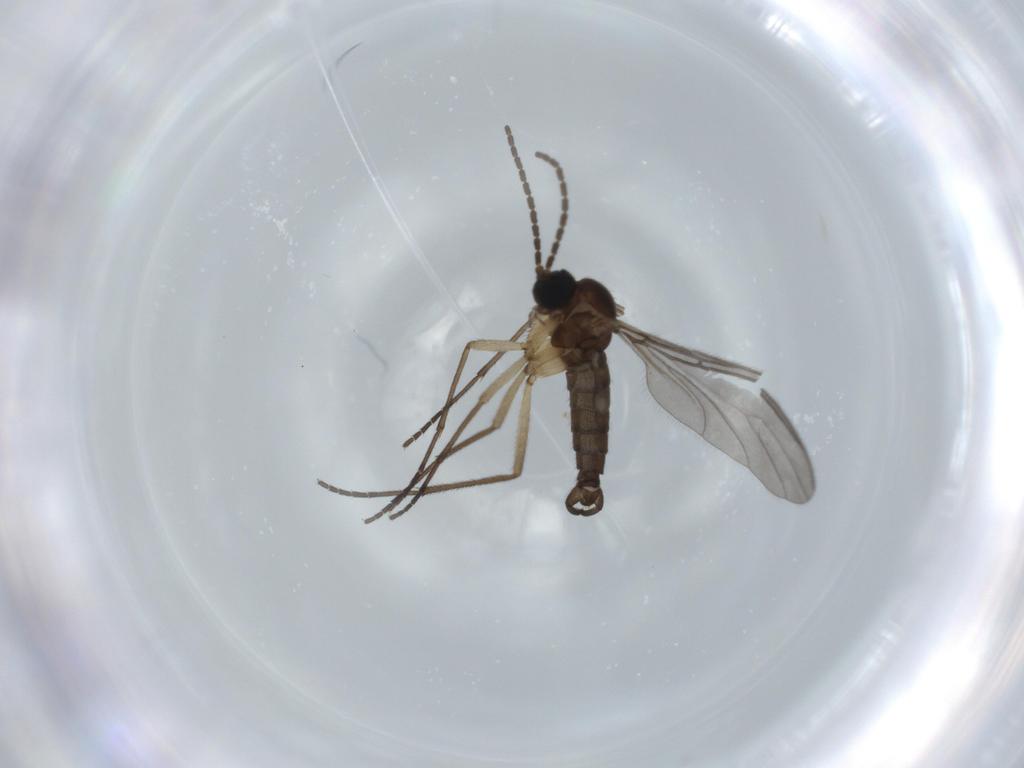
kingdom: Animalia
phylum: Arthropoda
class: Insecta
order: Diptera
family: Sciaridae
